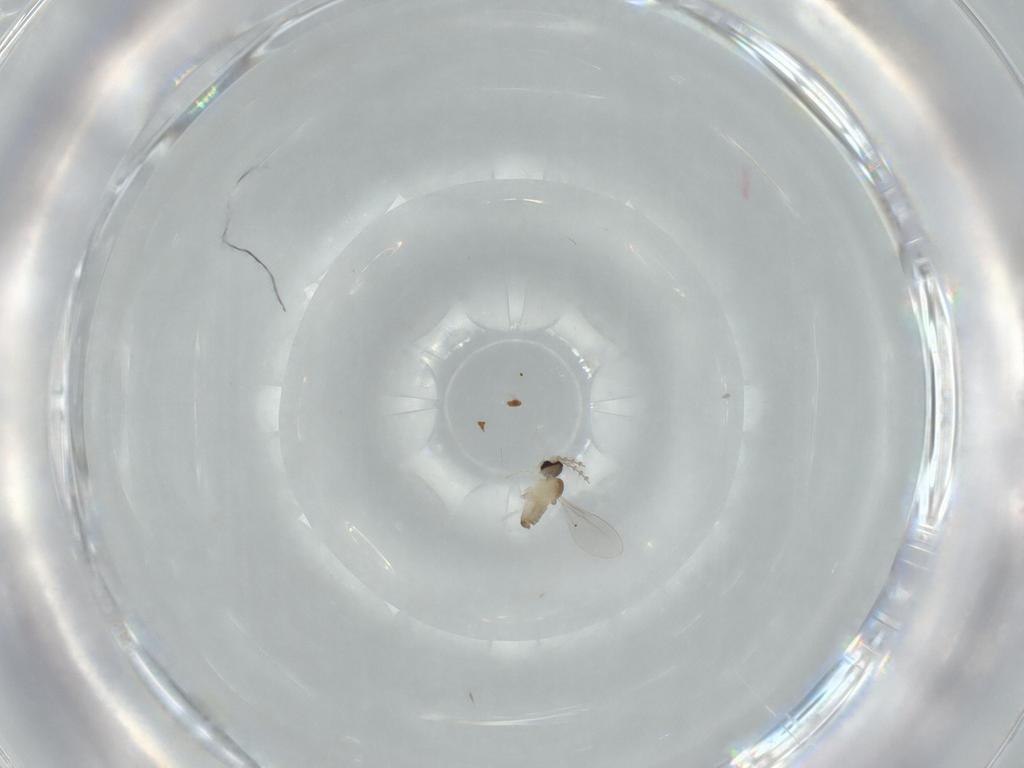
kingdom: Animalia
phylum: Arthropoda
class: Insecta
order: Diptera
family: Cecidomyiidae
